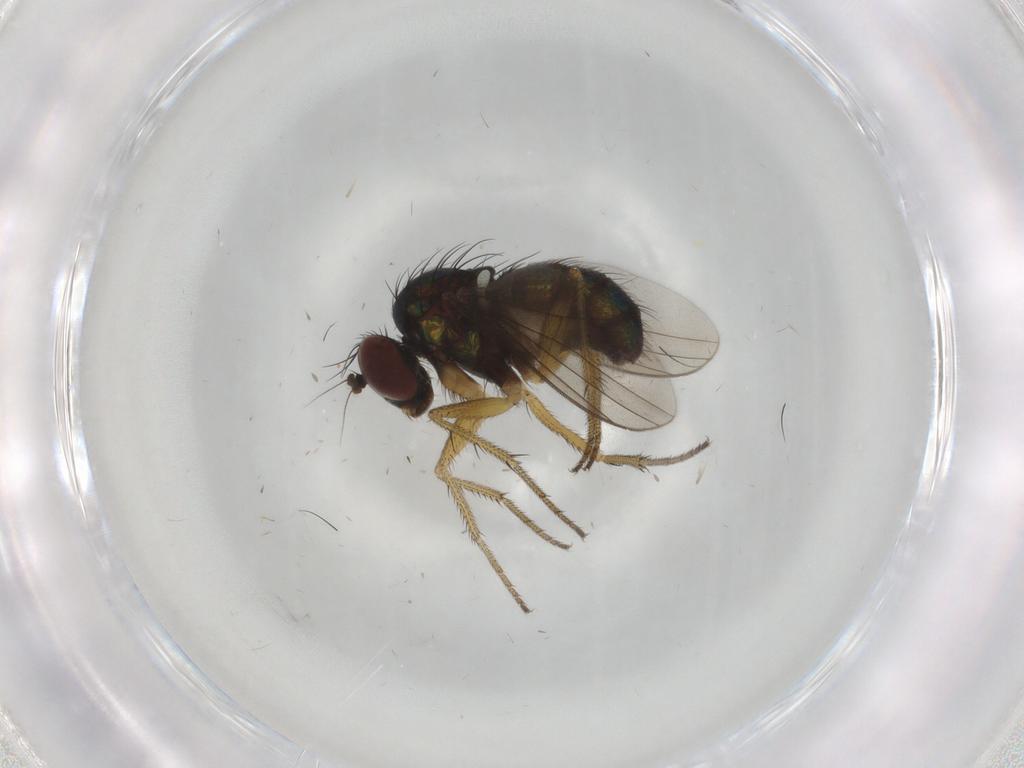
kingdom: Animalia
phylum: Arthropoda
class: Insecta
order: Diptera
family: Dolichopodidae
